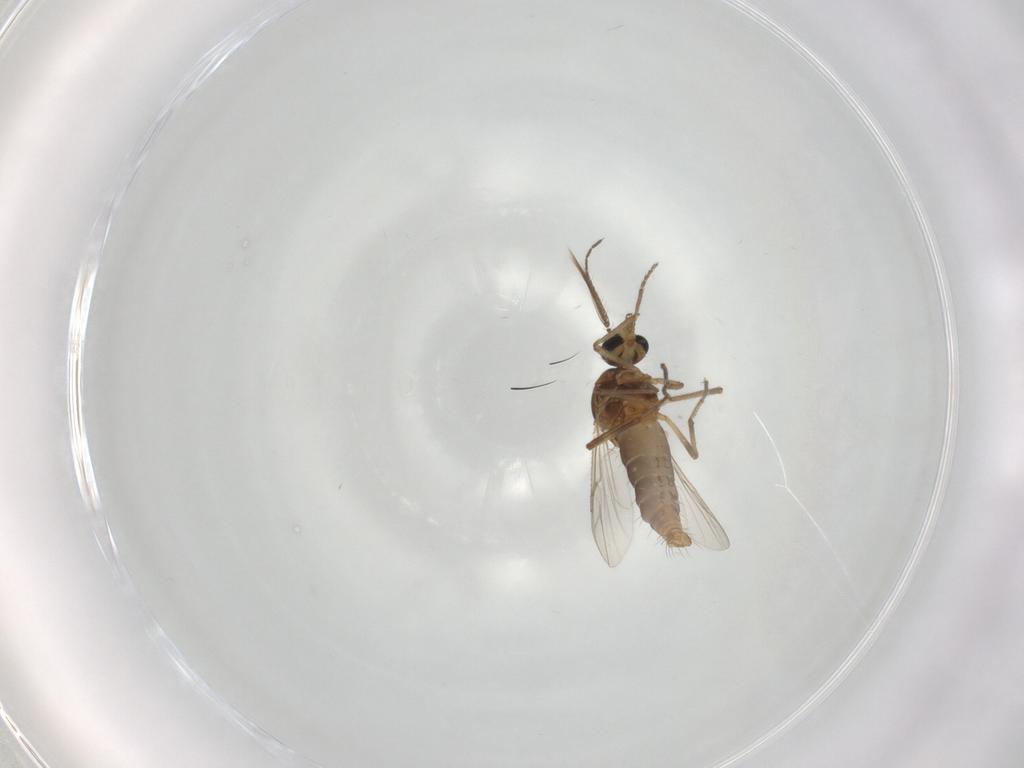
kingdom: Animalia
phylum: Arthropoda
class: Insecta
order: Diptera
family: Ceratopogonidae
